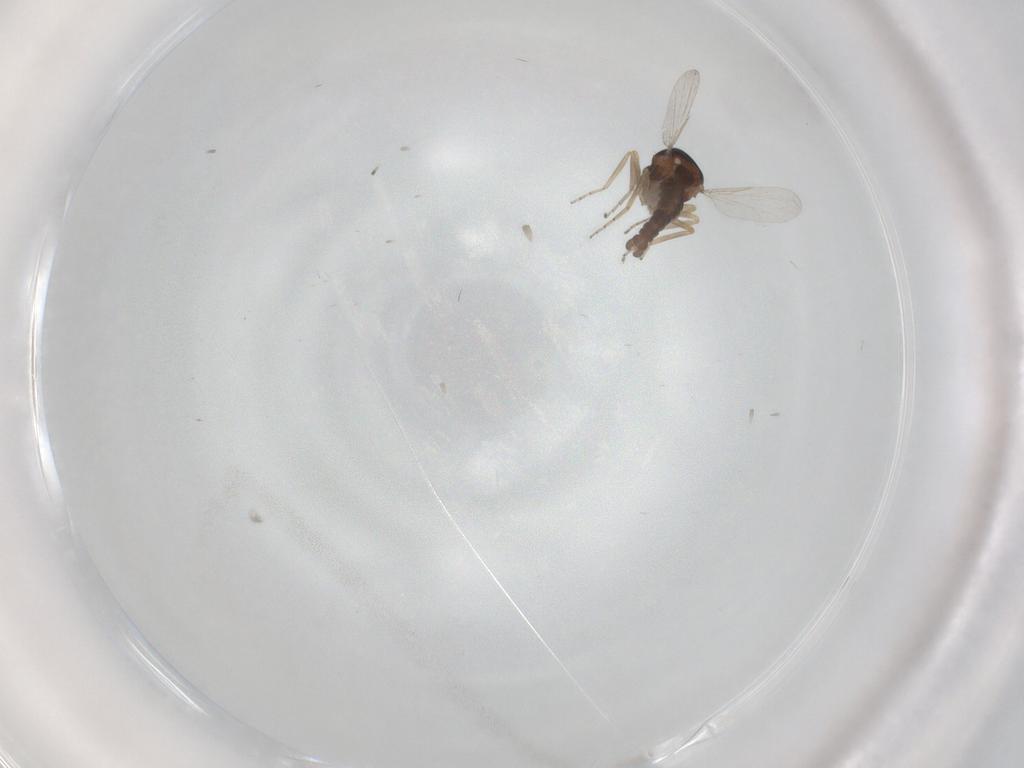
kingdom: Animalia
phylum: Arthropoda
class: Insecta
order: Diptera
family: Ceratopogonidae
